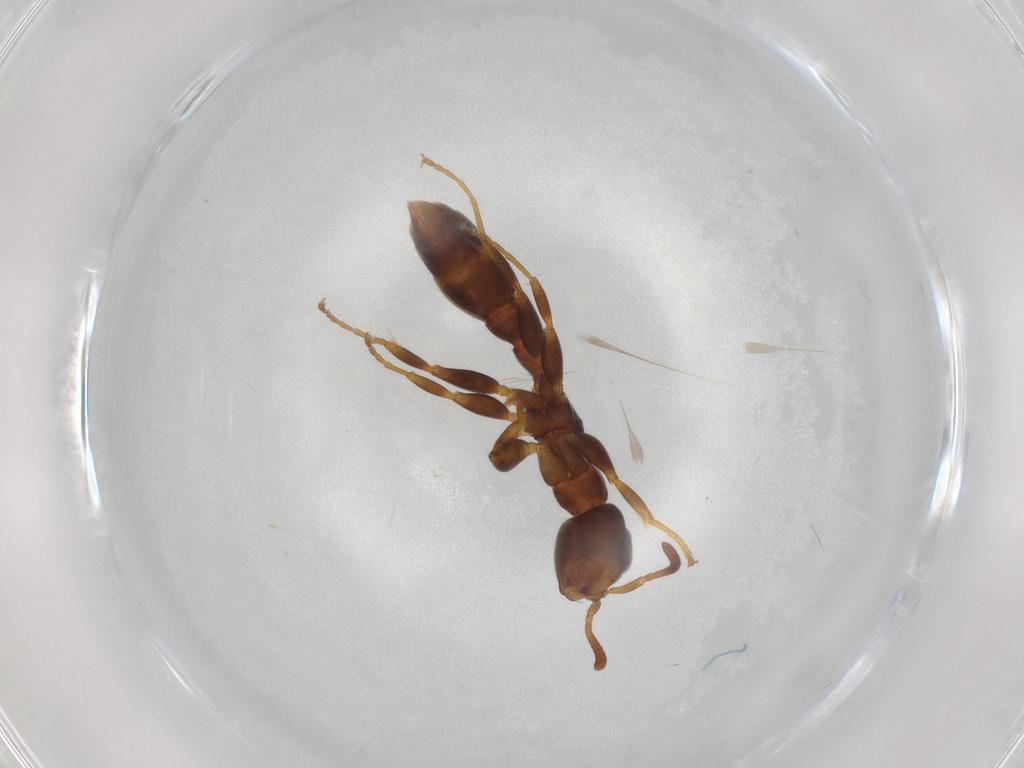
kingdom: Animalia
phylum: Arthropoda
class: Insecta
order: Hymenoptera
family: Formicidae
